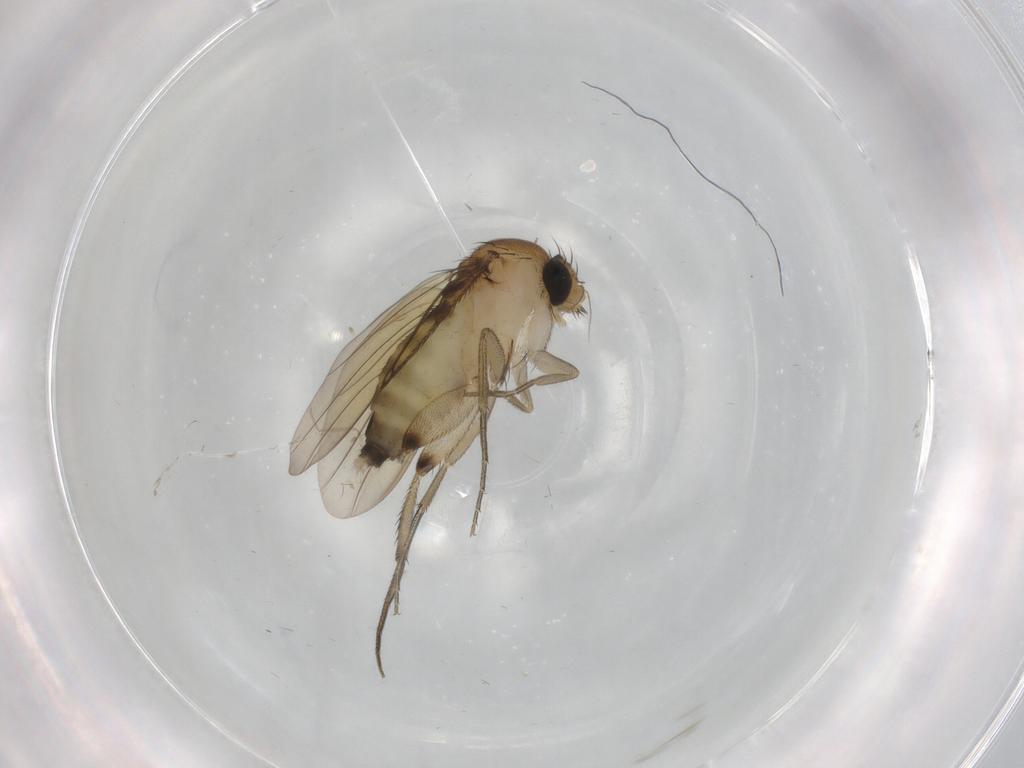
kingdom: Animalia
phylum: Arthropoda
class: Insecta
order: Diptera
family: Phoridae
